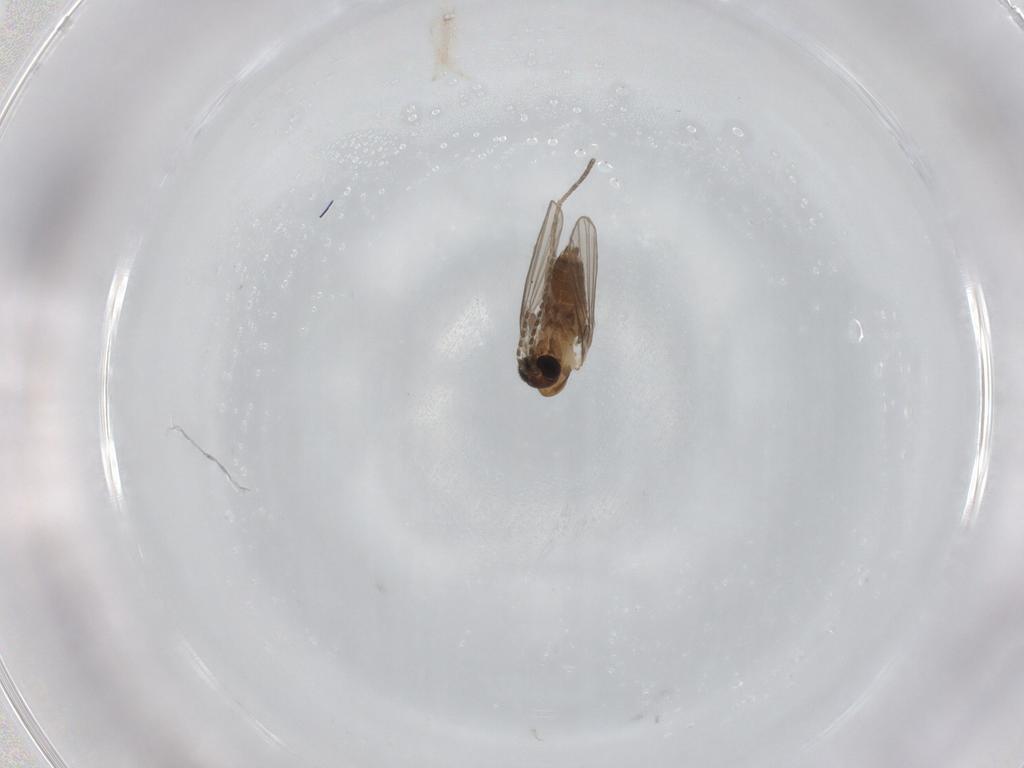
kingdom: Animalia
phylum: Arthropoda
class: Insecta
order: Diptera
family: Psychodidae
